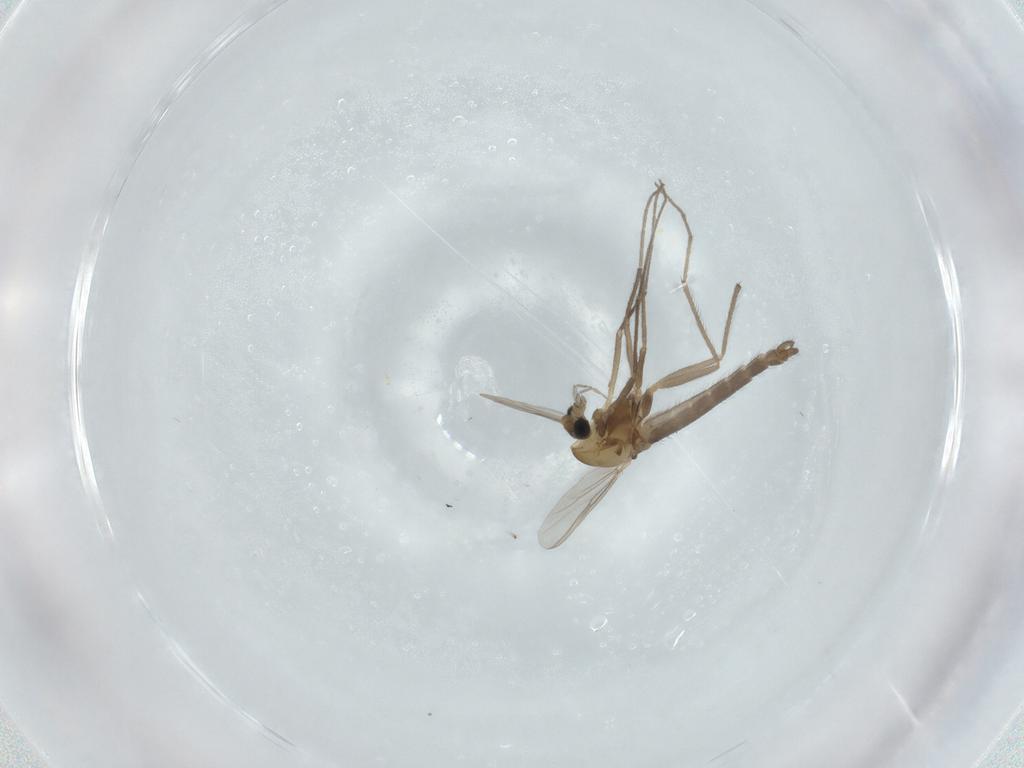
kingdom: Animalia
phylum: Arthropoda
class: Insecta
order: Diptera
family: Chironomidae
